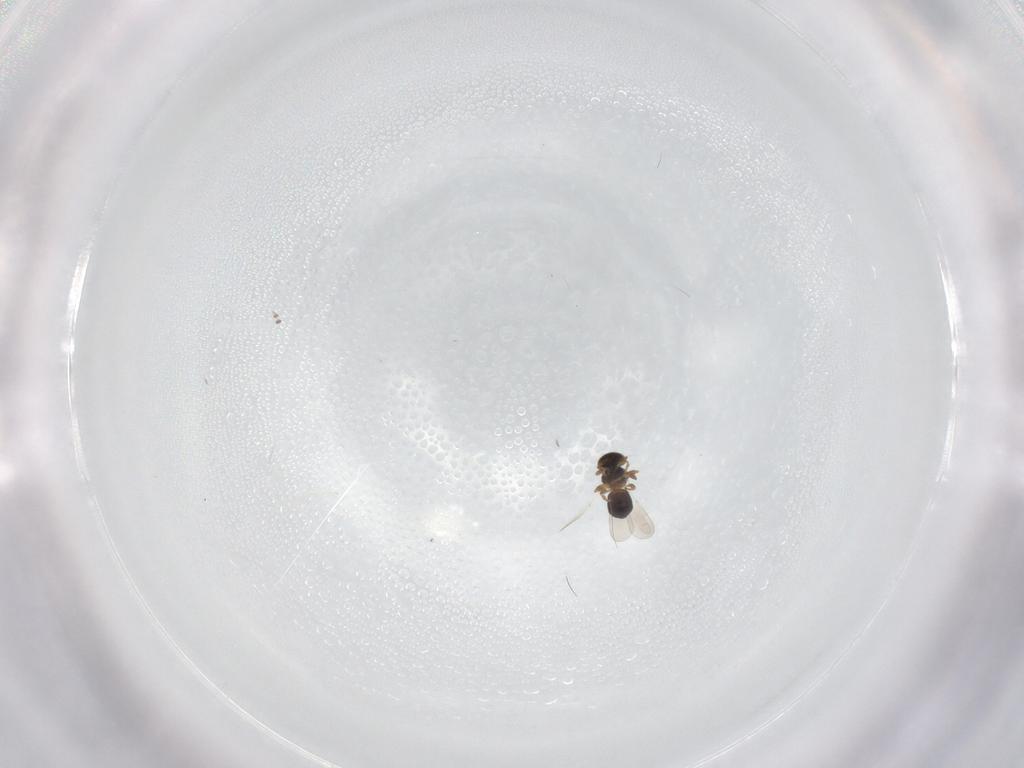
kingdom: Animalia
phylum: Arthropoda
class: Insecta
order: Hymenoptera
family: Platygastridae
